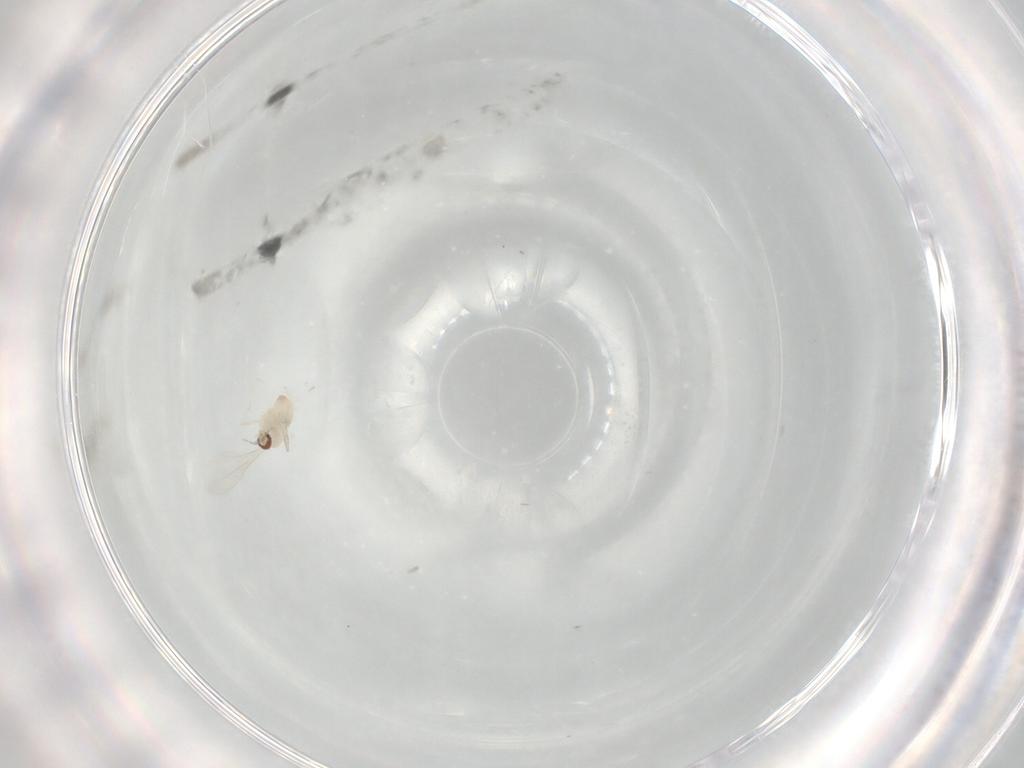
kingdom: Animalia
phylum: Arthropoda
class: Insecta
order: Diptera
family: Cecidomyiidae
